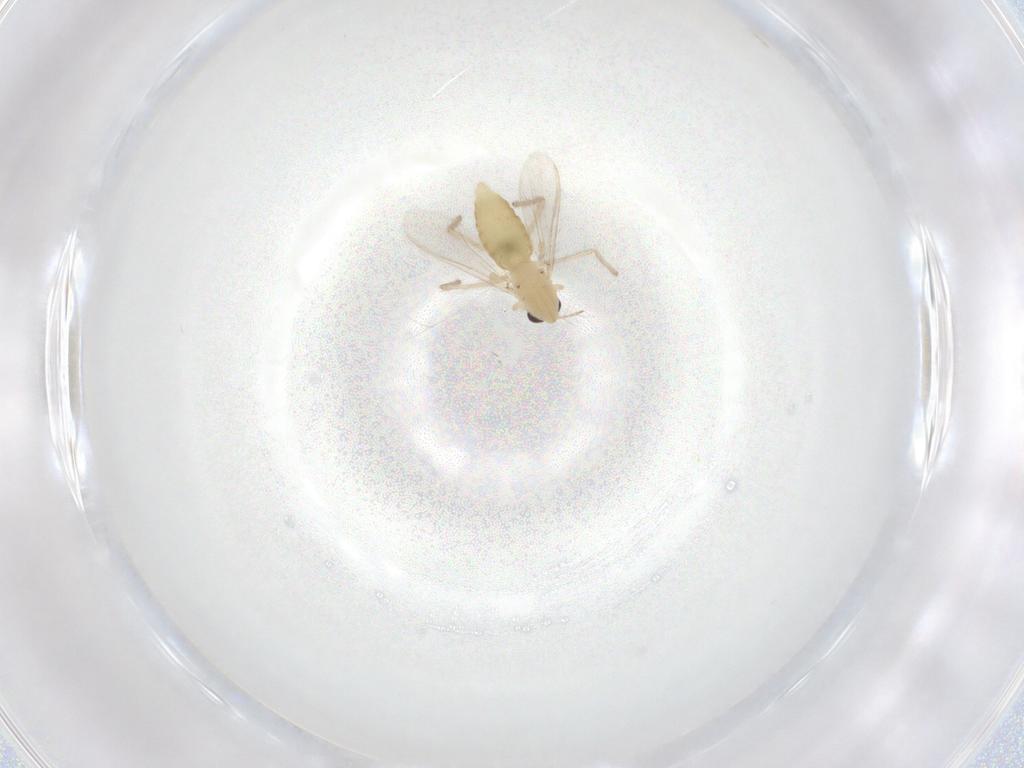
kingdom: Animalia
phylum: Arthropoda
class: Insecta
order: Diptera
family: Chironomidae
